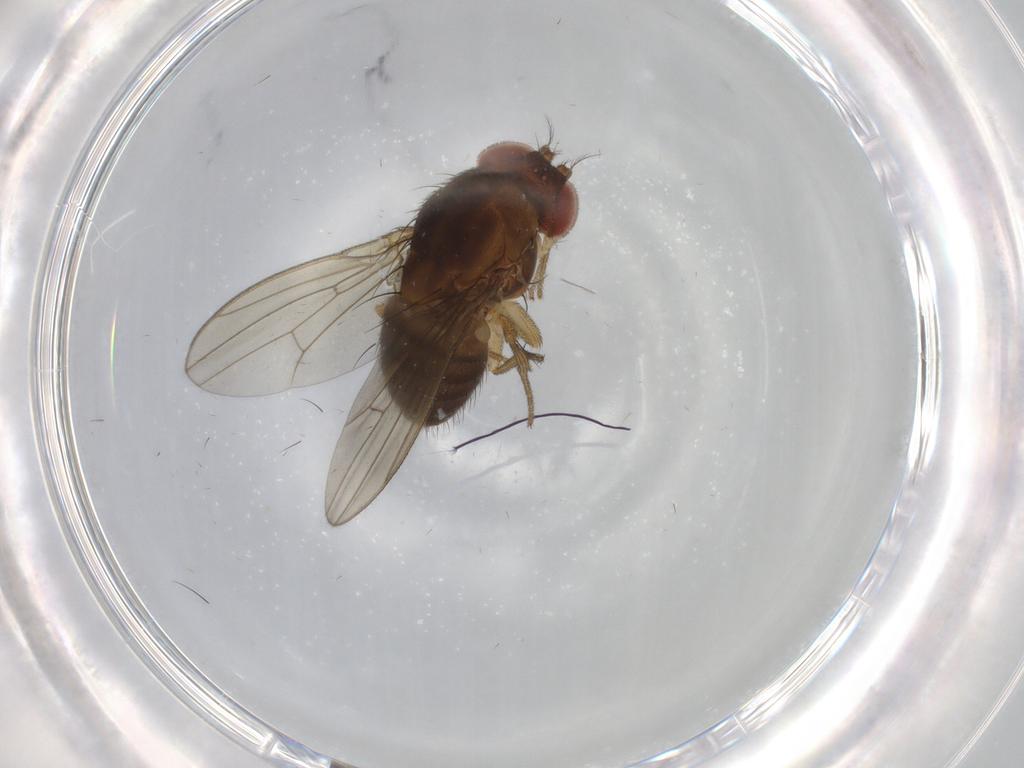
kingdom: Animalia
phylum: Arthropoda
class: Insecta
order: Diptera
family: Drosophilidae
